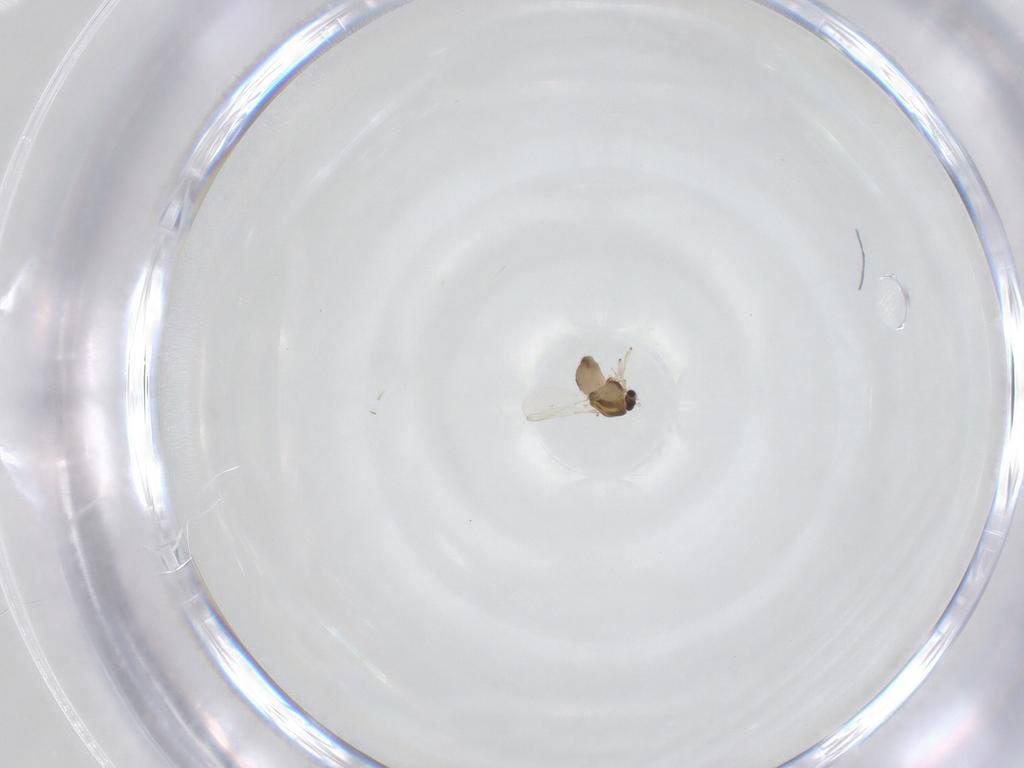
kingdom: Animalia
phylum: Arthropoda
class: Insecta
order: Diptera
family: Chironomidae
